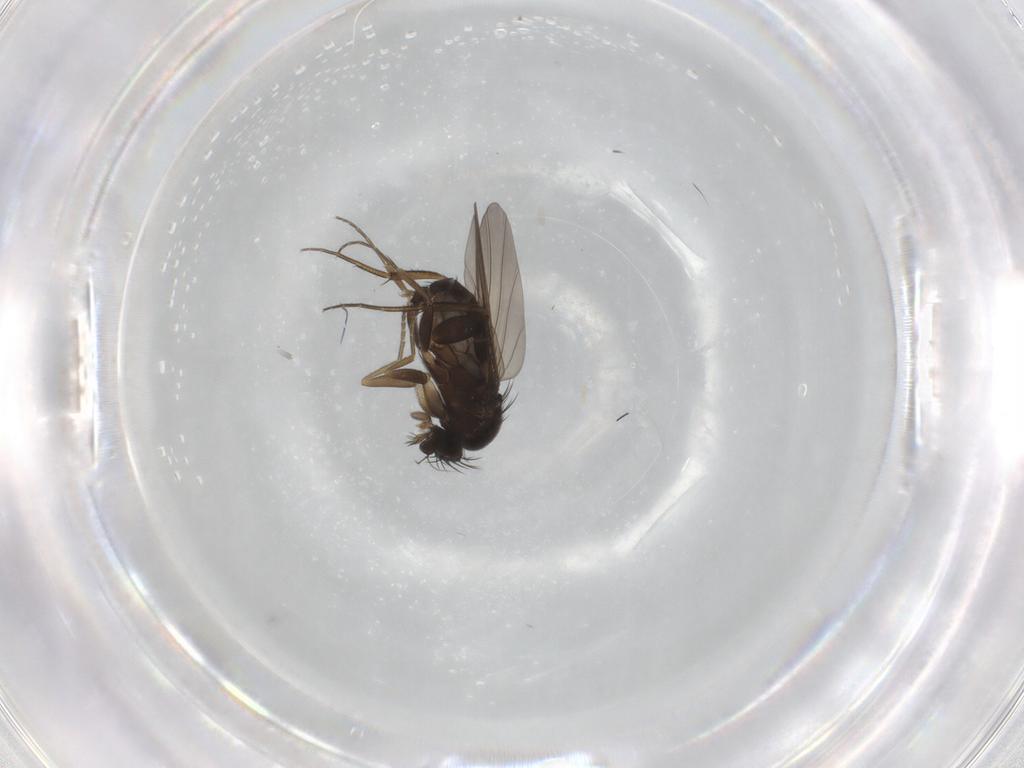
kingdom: Animalia
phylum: Arthropoda
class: Insecta
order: Diptera
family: Phoridae
